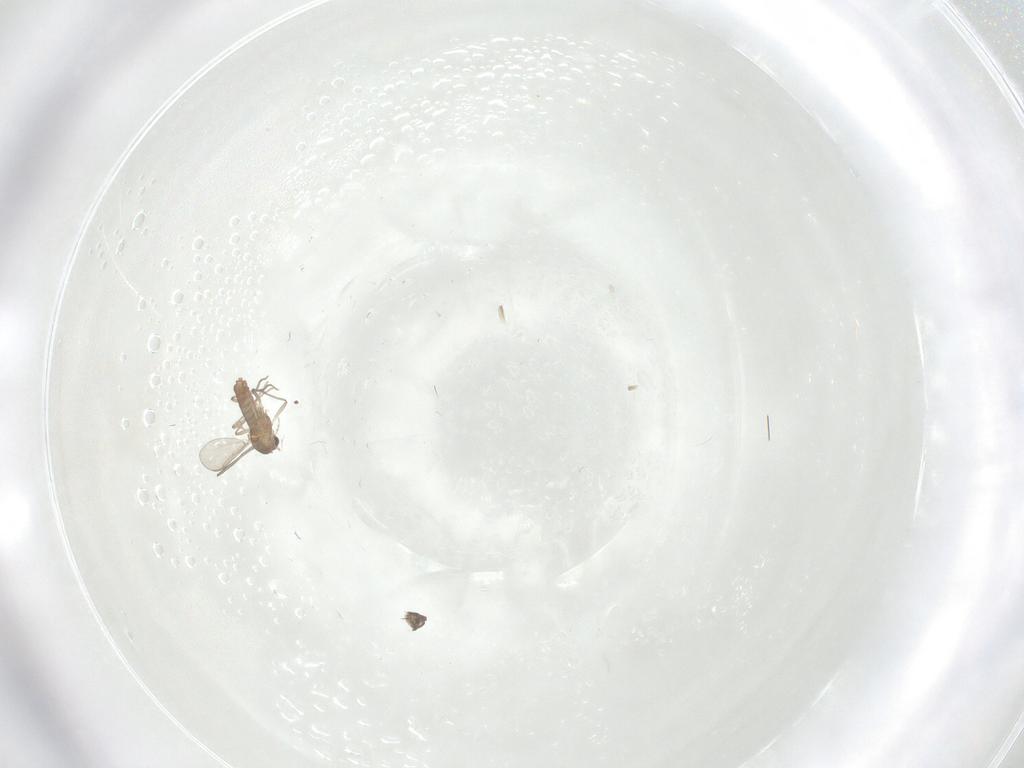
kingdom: Animalia
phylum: Arthropoda
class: Insecta
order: Diptera
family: Chironomidae
